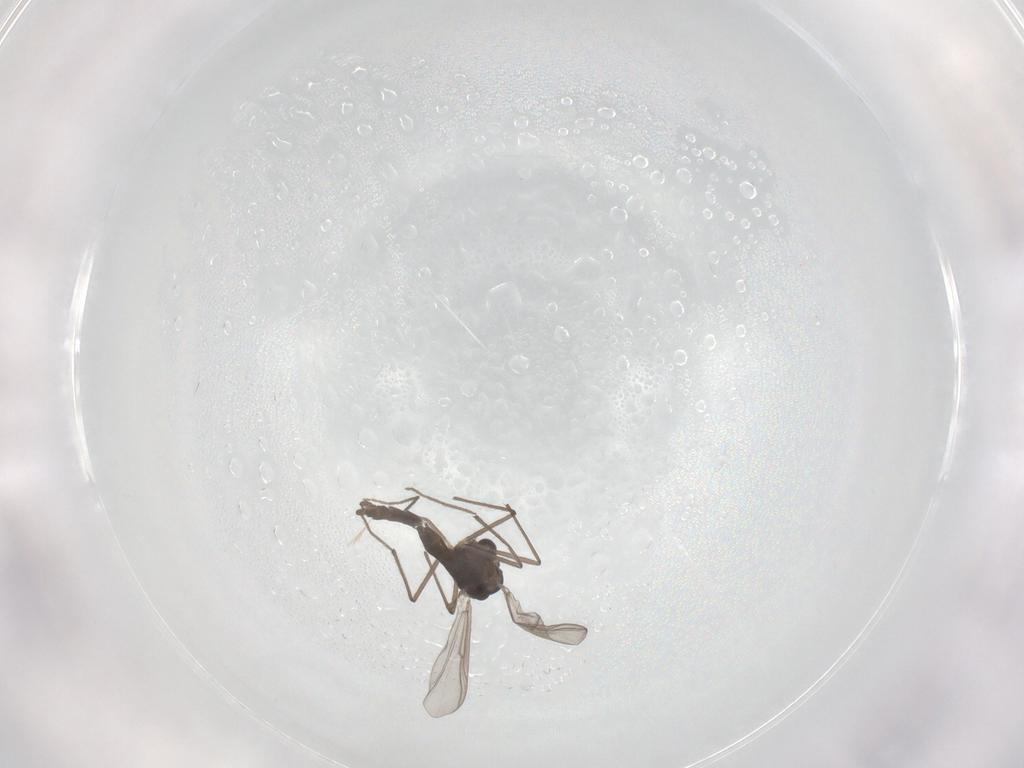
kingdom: Animalia
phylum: Arthropoda
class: Insecta
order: Diptera
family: Chironomidae
